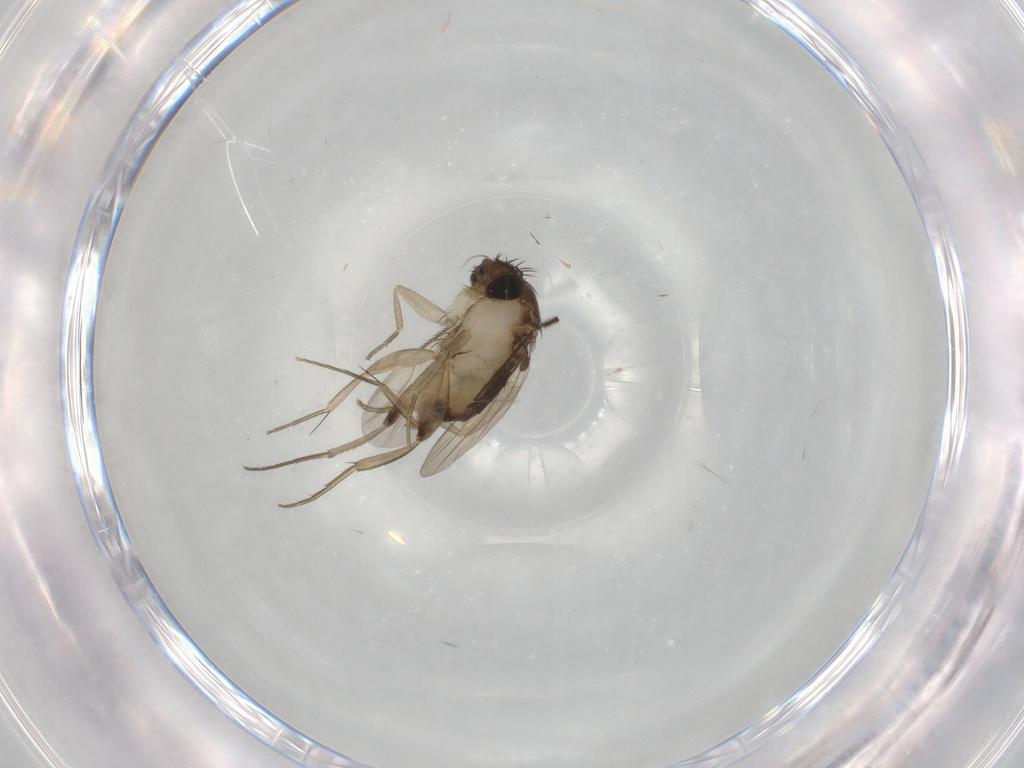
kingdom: Animalia
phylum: Arthropoda
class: Insecta
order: Diptera
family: Sciaridae
